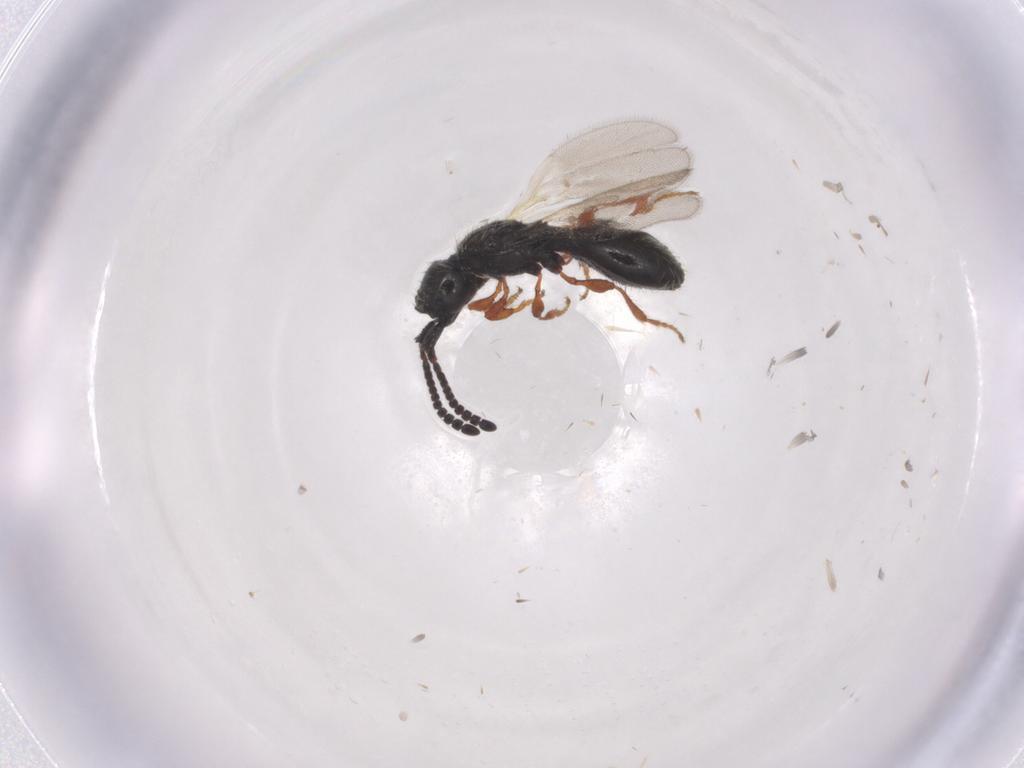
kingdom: Animalia
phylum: Arthropoda
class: Insecta
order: Hymenoptera
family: Diapriidae
